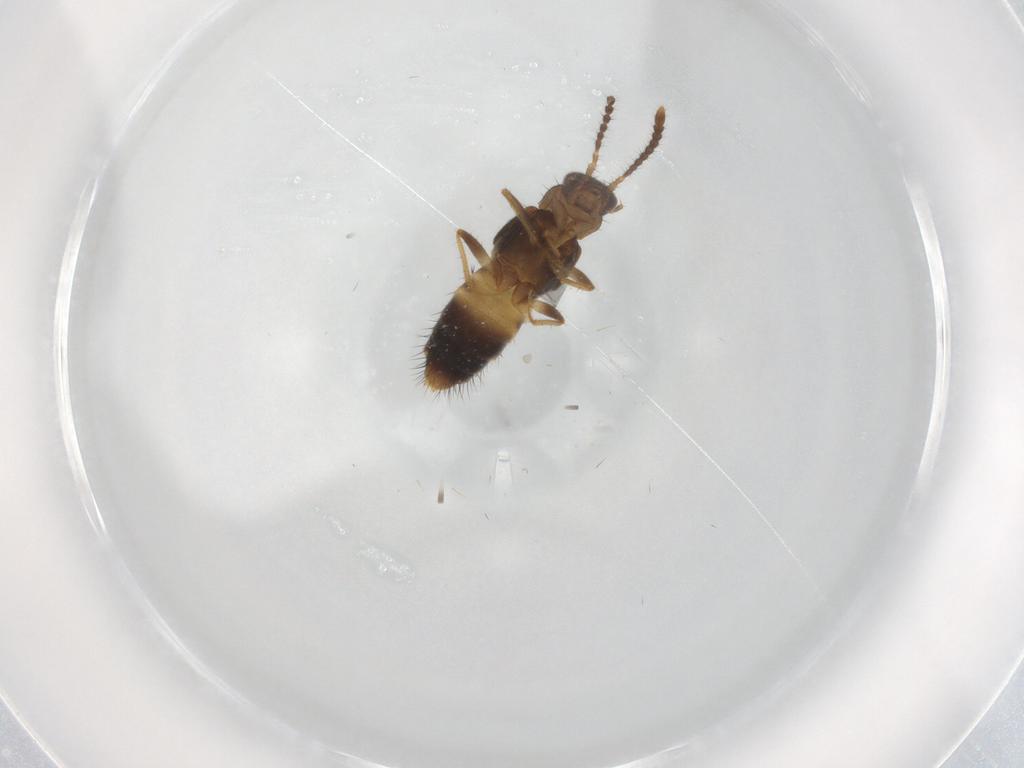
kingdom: Animalia
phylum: Arthropoda
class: Insecta
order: Coleoptera
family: Staphylinidae
